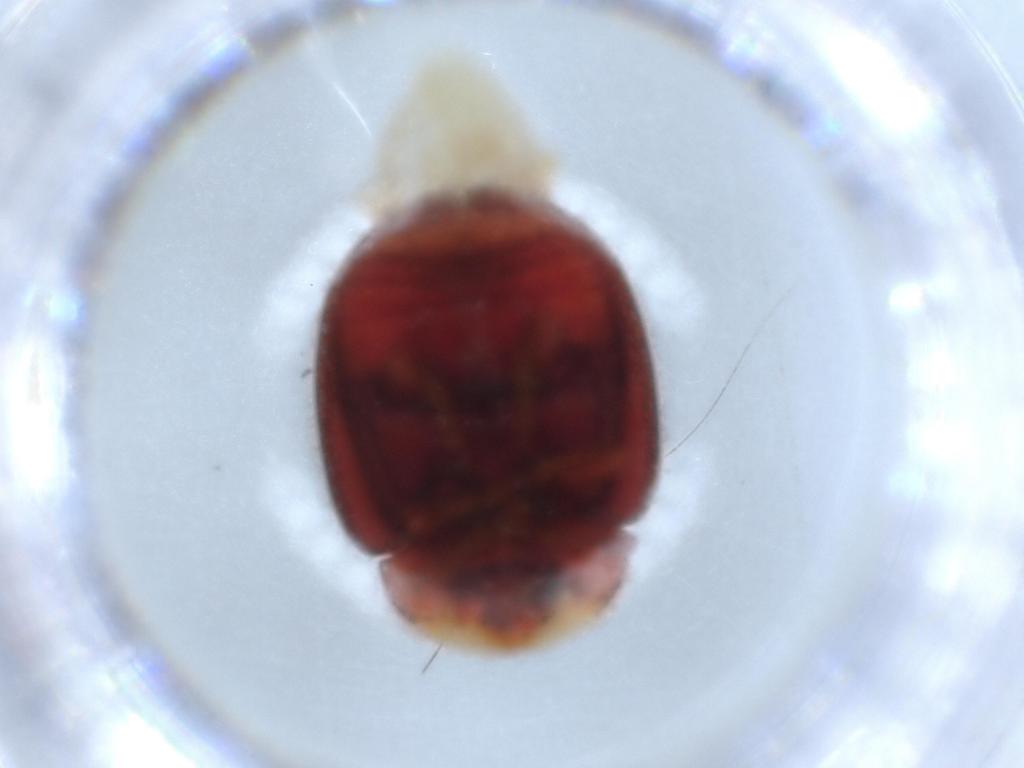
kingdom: Animalia
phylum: Arthropoda
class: Insecta
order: Coleoptera
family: Coccinellidae
